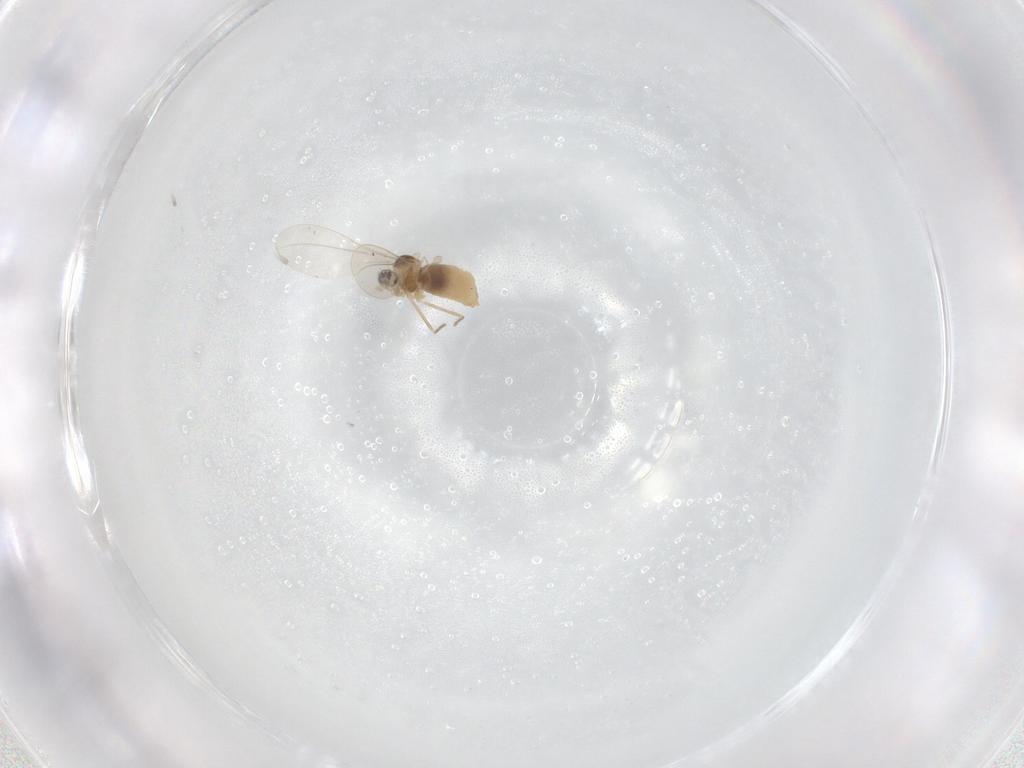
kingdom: Animalia
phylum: Arthropoda
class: Insecta
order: Diptera
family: Cecidomyiidae
